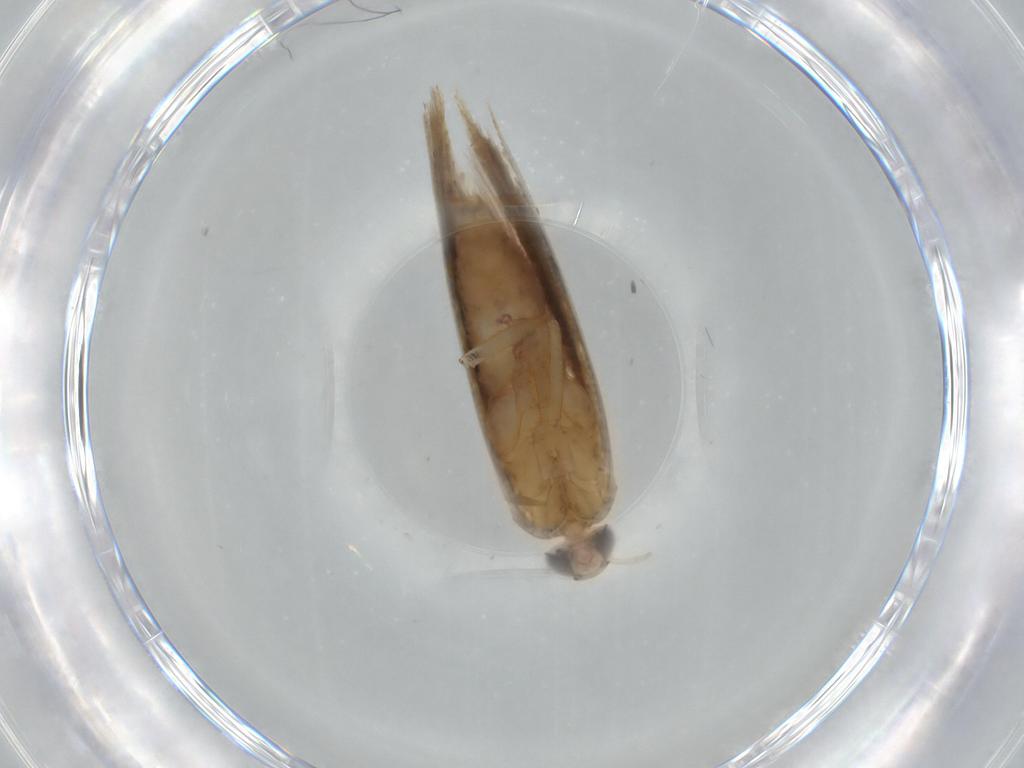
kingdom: Animalia
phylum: Arthropoda
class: Insecta
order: Lepidoptera
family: Gelechiidae
